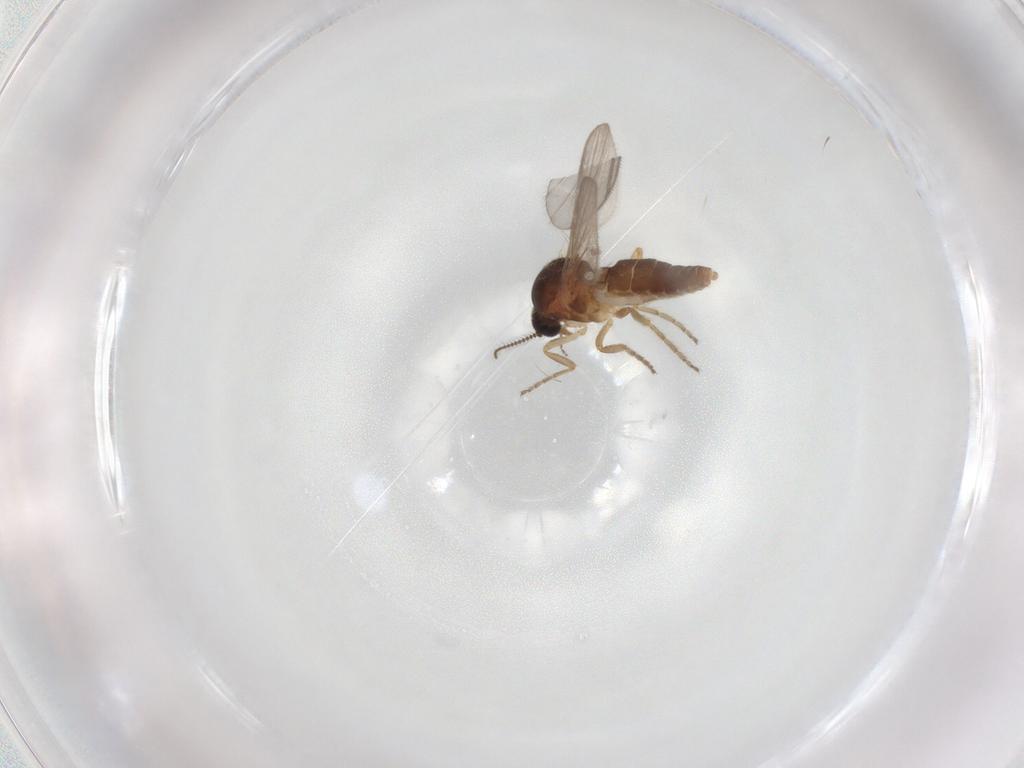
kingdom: Animalia
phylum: Arthropoda
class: Insecta
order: Diptera
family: Ceratopogonidae
